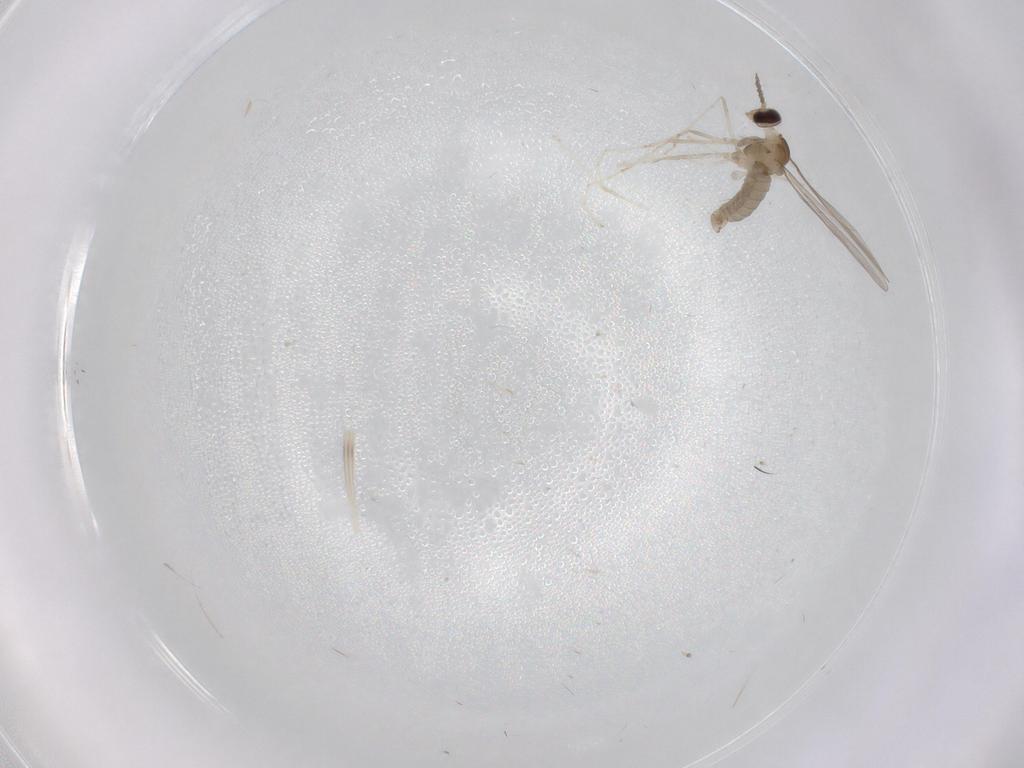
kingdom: Animalia
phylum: Arthropoda
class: Insecta
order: Diptera
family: Cecidomyiidae
